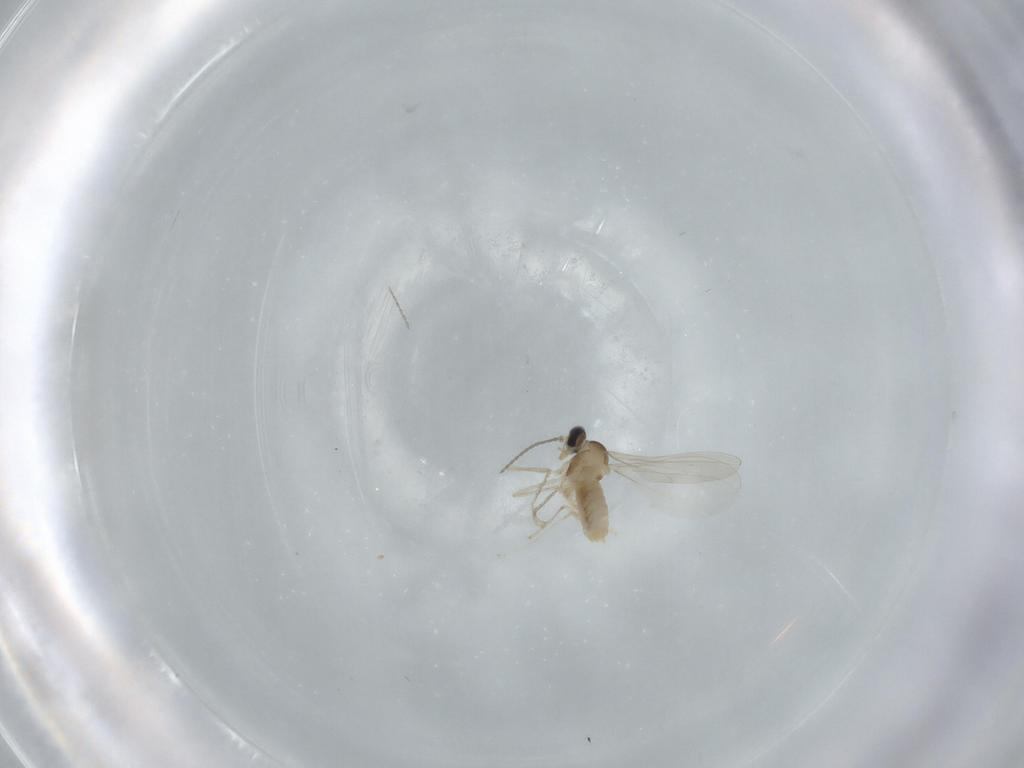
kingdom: Animalia
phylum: Arthropoda
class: Insecta
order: Diptera
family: Cecidomyiidae
